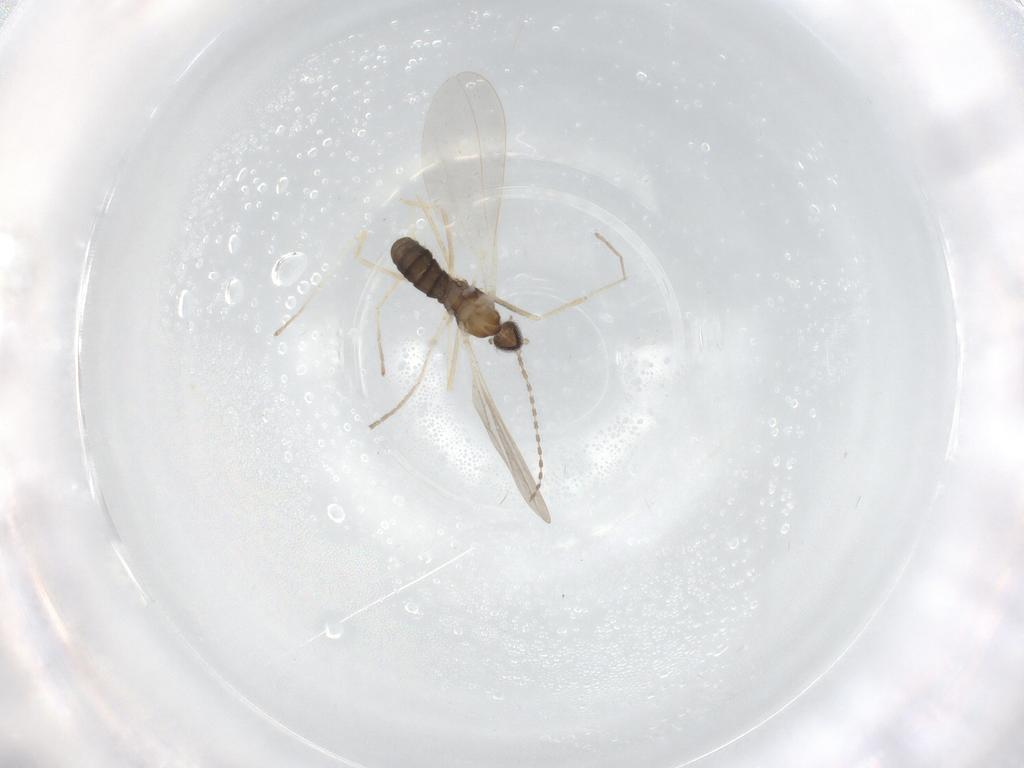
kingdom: Animalia
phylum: Arthropoda
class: Insecta
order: Diptera
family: Cecidomyiidae
